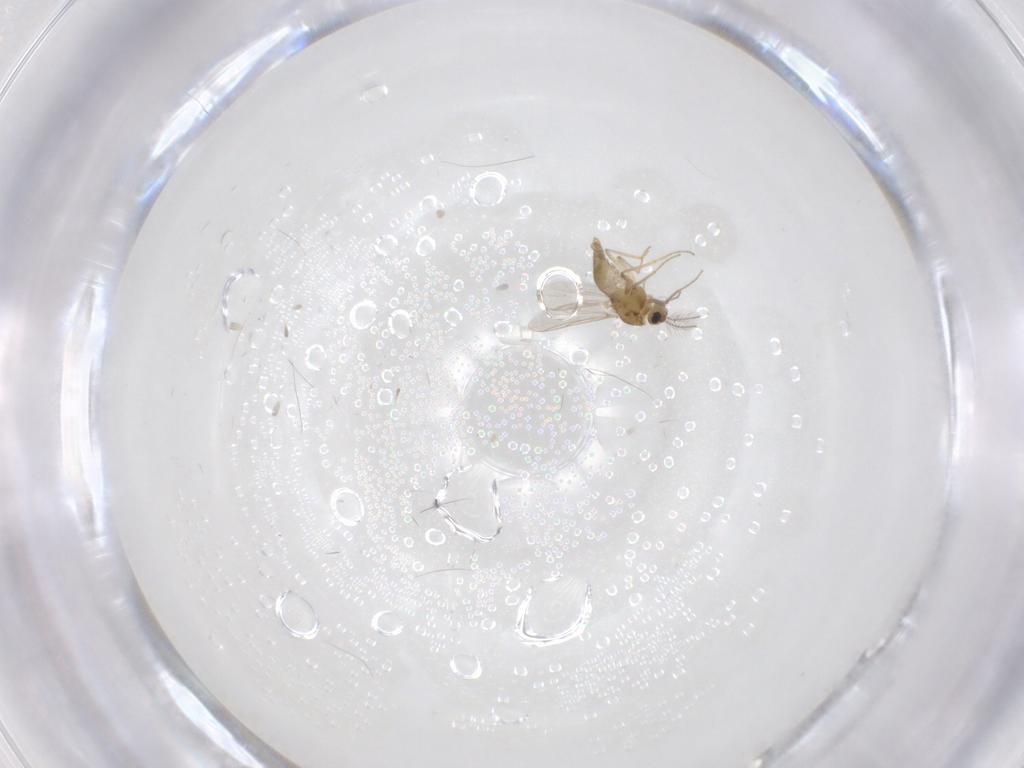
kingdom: Animalia
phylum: Arthropoda
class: Insecta
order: Diptera
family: Chironomidae
